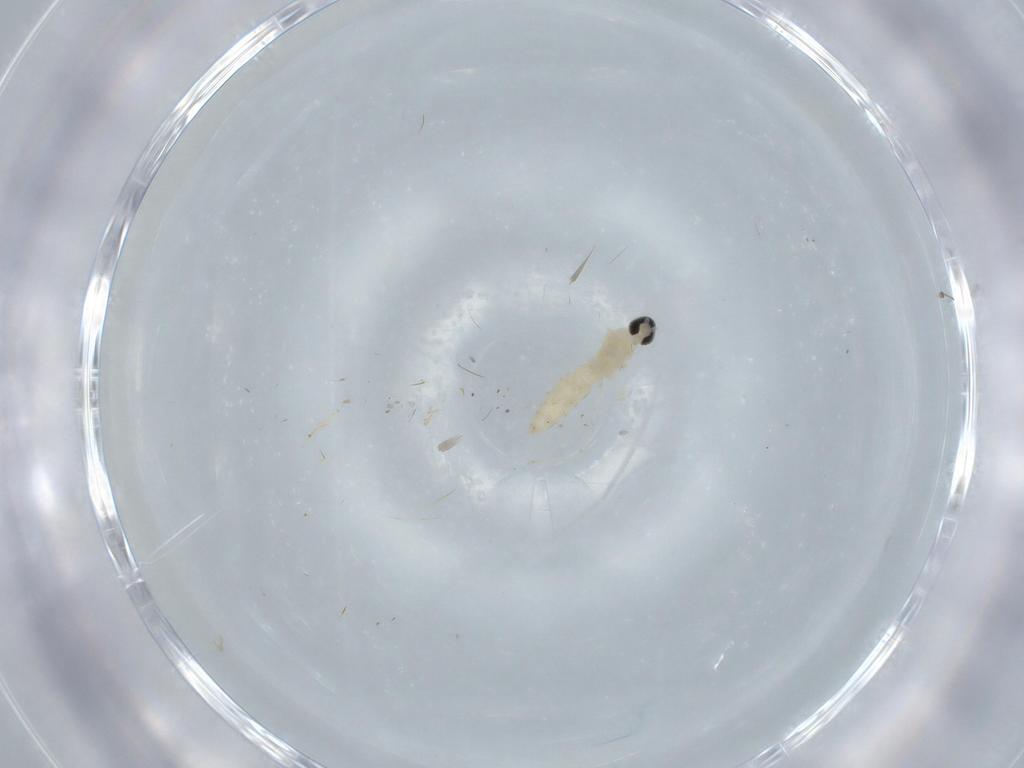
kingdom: Animalia
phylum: Arthropoda
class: Insecta
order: Diptera
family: Cecidomyiidae
